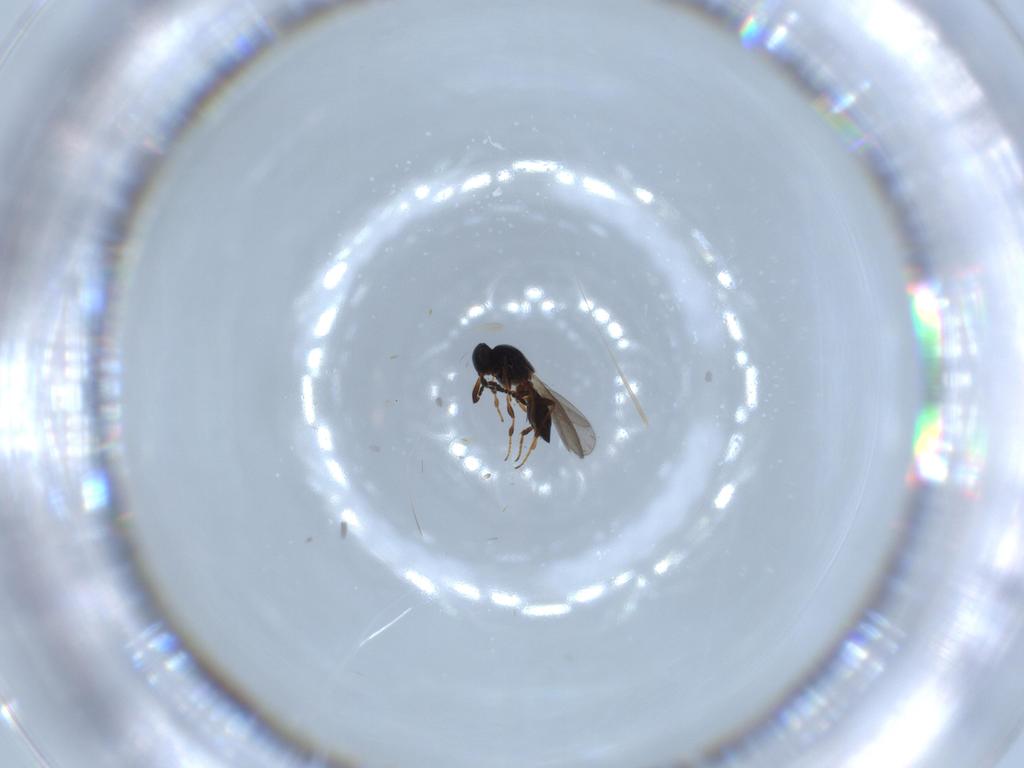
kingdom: Animalia
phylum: Arthropoda
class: Insecta
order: Hymenoptera
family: Platygastridae
